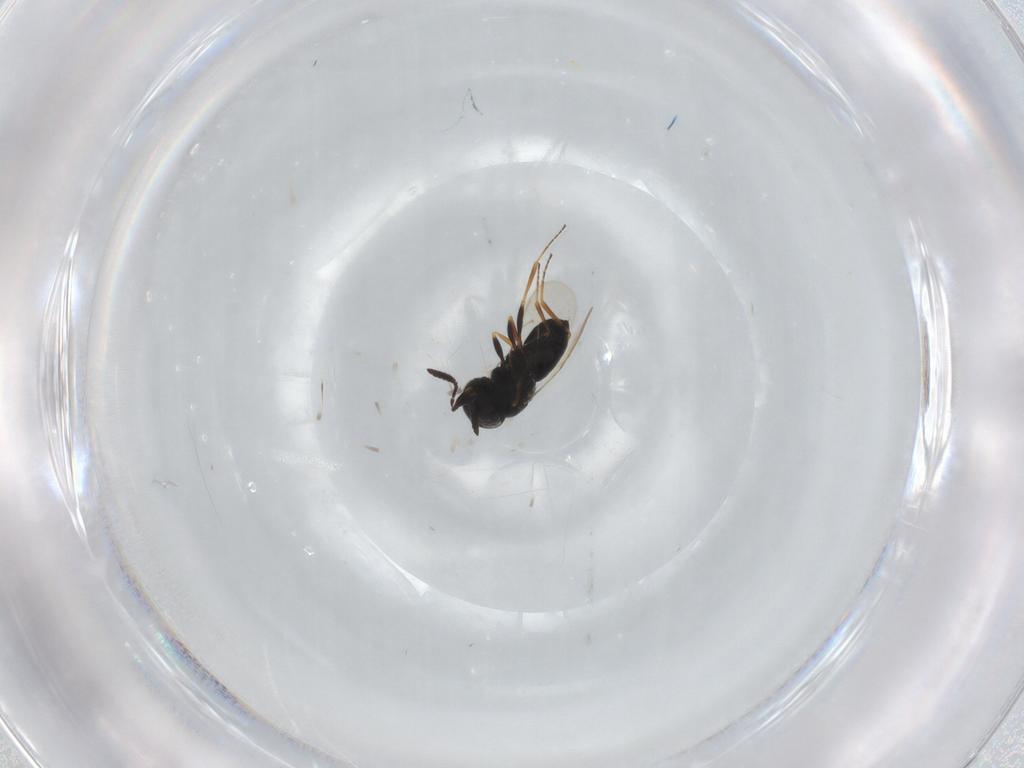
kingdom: Animalia
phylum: Arthropoda
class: Insecta
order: Hymenoptera
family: Scelionidae
